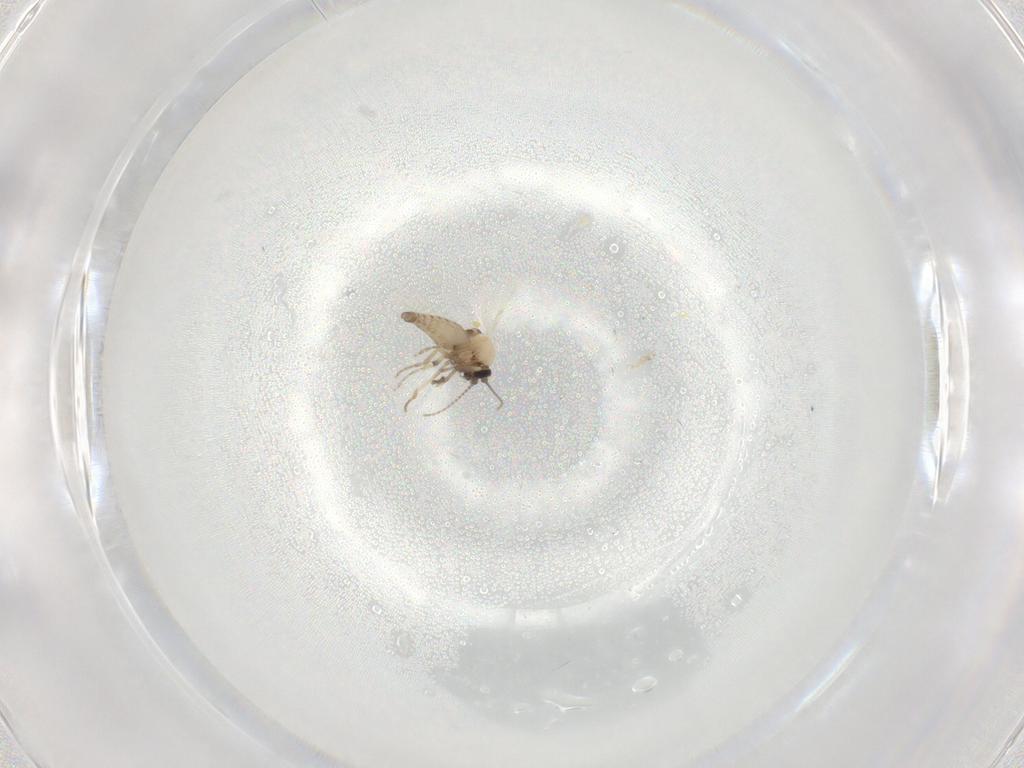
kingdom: Animalia
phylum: Arthropoda
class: Insecta
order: Diptera
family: Ceratopogonidae
